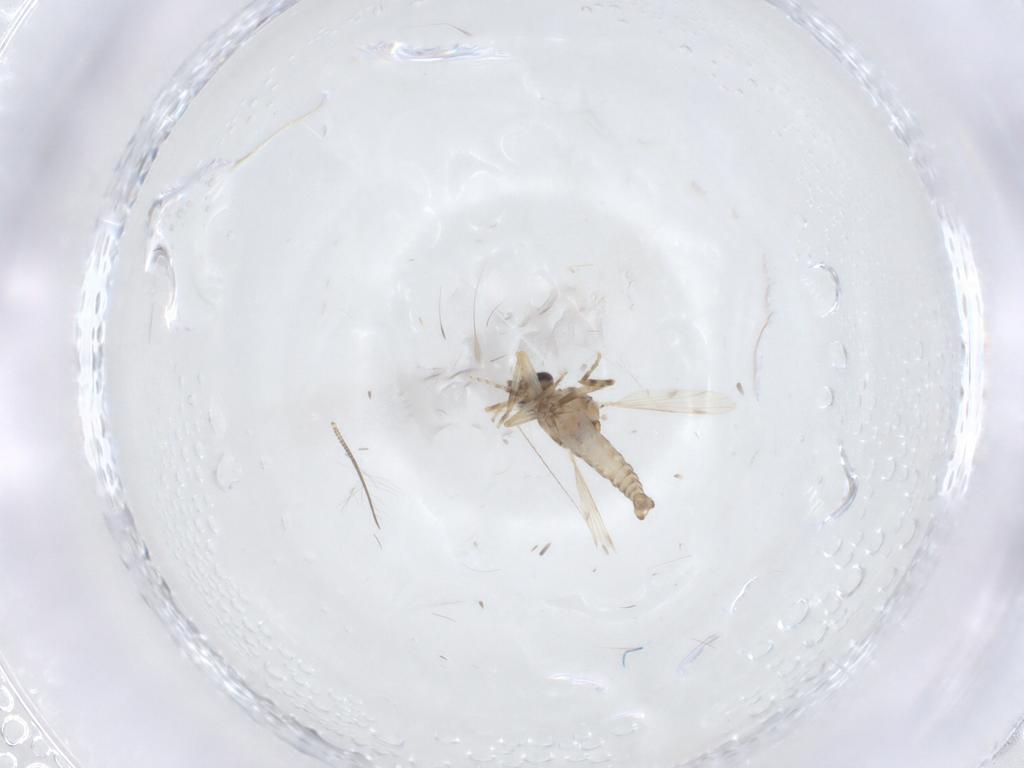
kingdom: Animalia
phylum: Arthropoda
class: Insecta
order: Diptera
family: Ceratopogonidae
